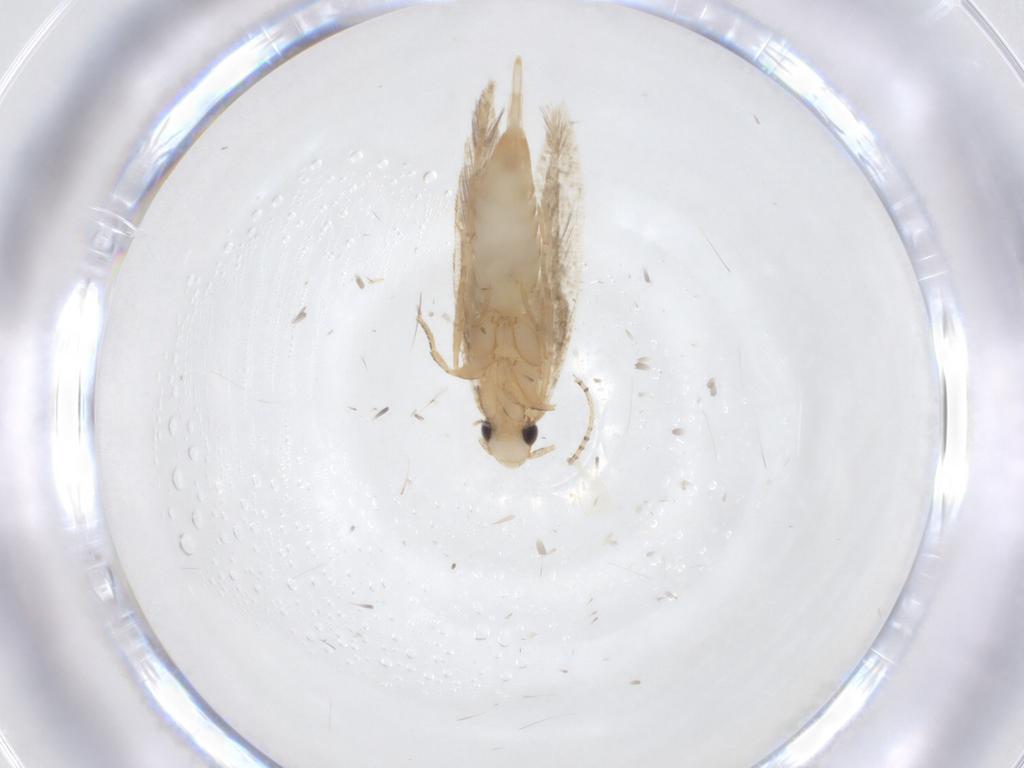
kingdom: Animalia
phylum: Arthropoda
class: Insecta
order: Lepidoptera
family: Tineidae
